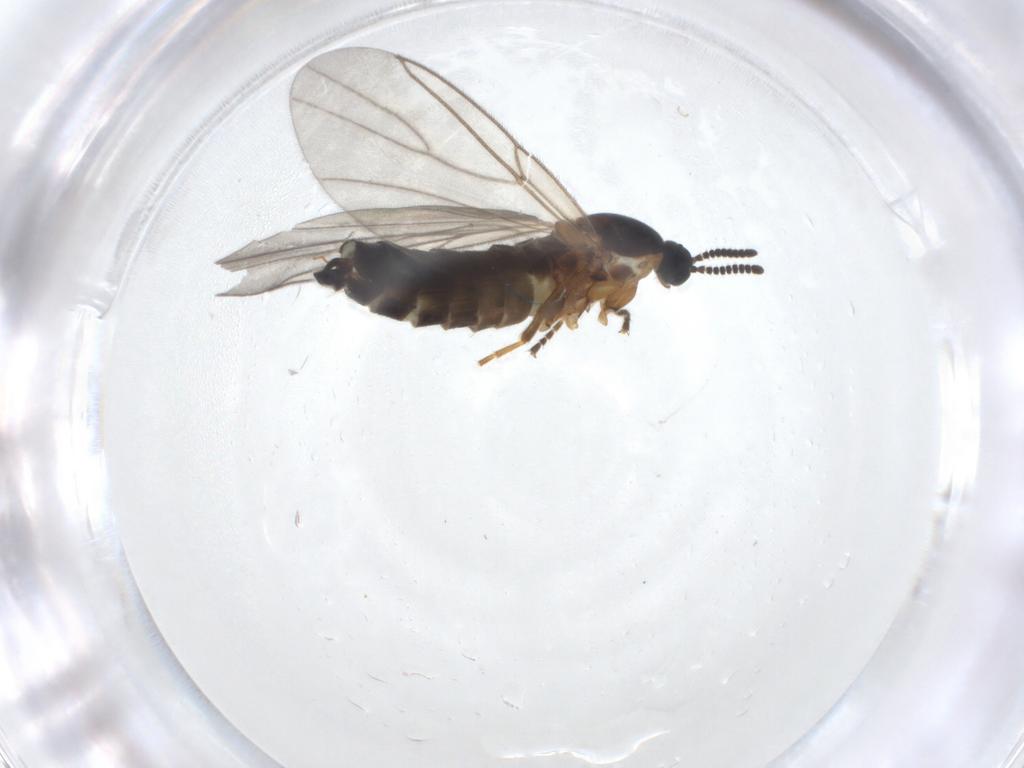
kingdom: Animalia
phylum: Arthropoda
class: Insecta
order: Diptera
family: Scatopsidae
